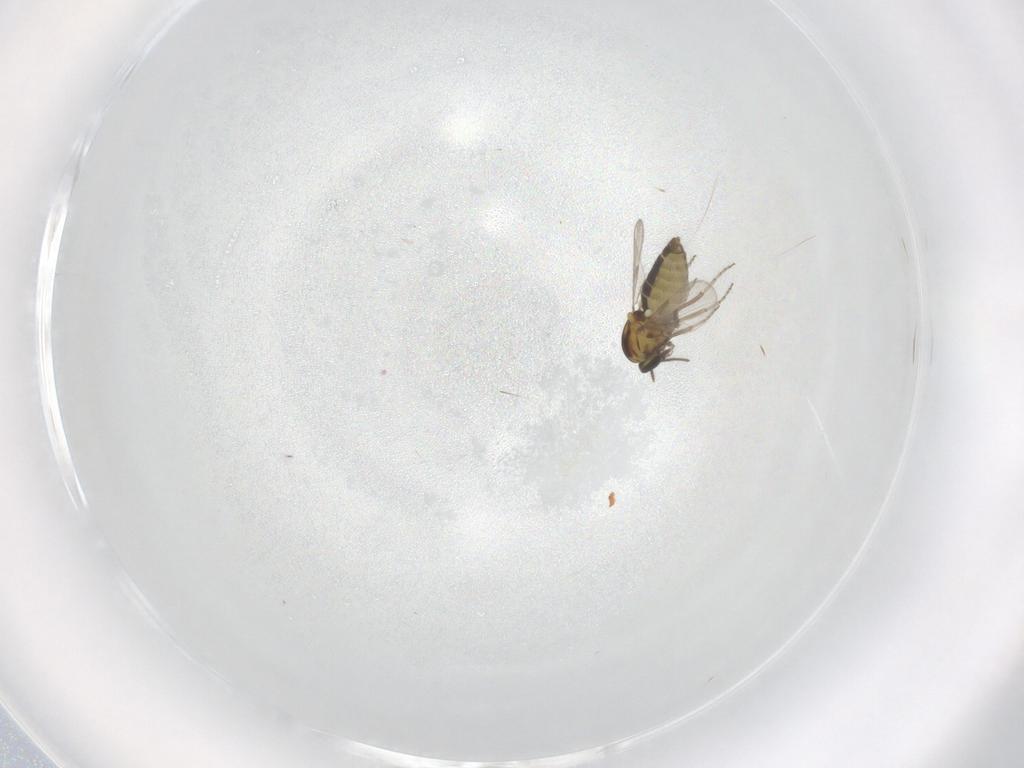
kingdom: Animalia
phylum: Arthropoda
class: Insecta
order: Diptera
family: Ceratopogonidae
